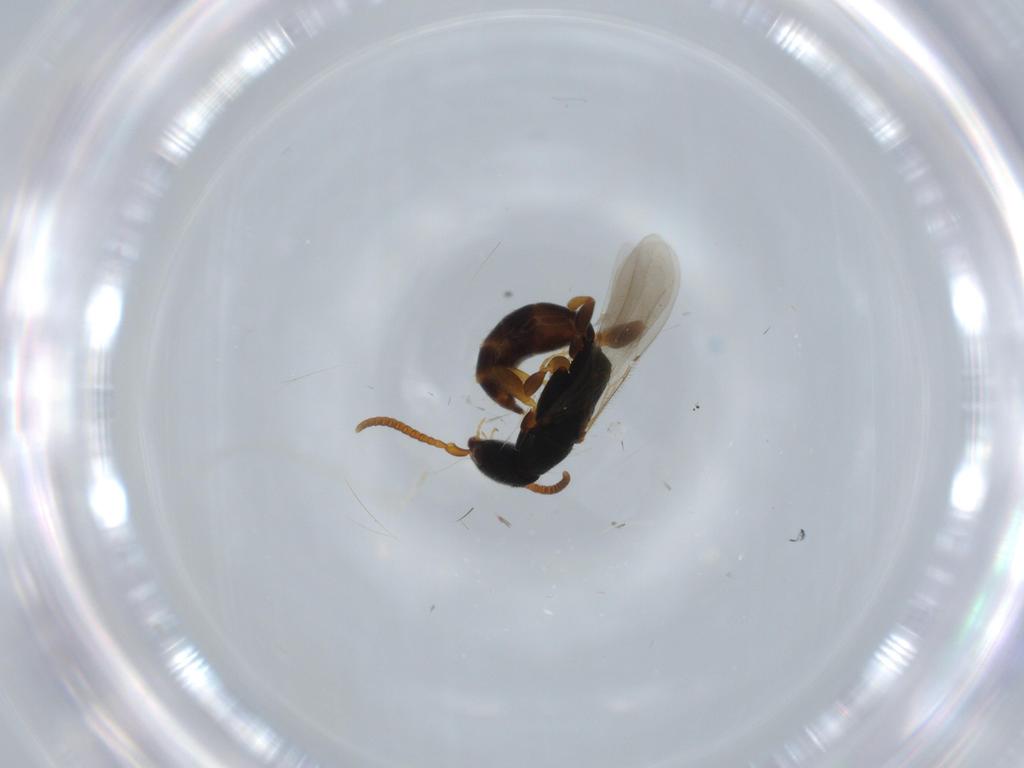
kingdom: Animalia
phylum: Arthropoda
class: Insecta
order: Hymenoptera
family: Bethylidae
